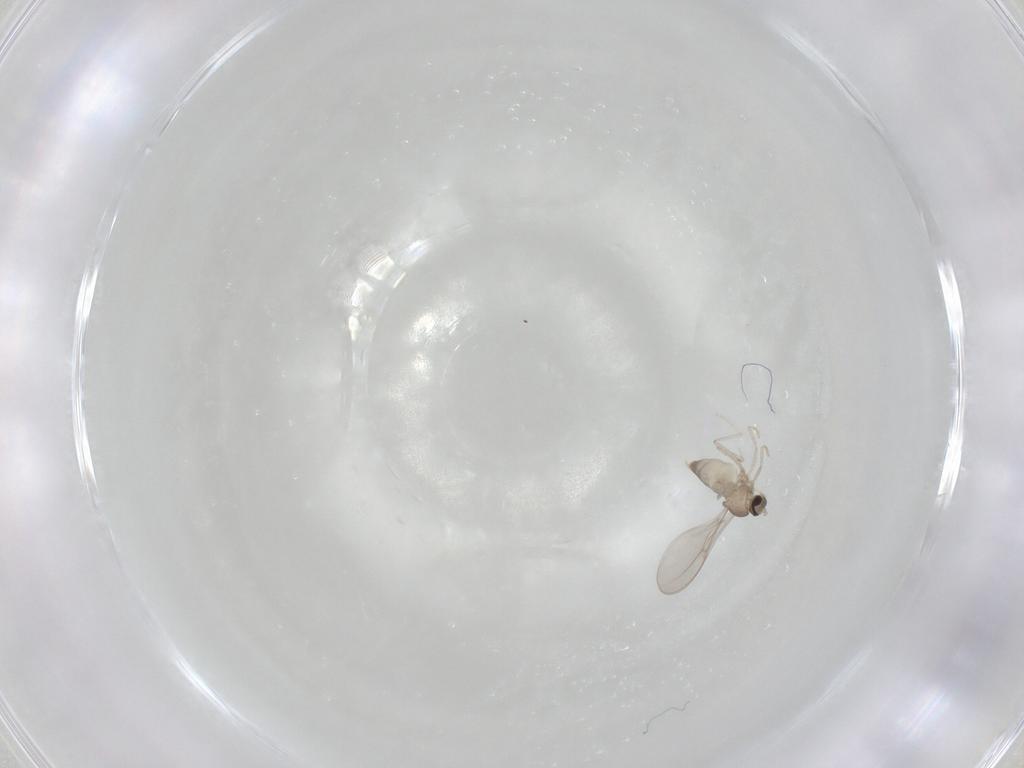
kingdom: Animalia
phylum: Arthropoda
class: Insecta
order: Diptera
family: Cecidomyiidae
